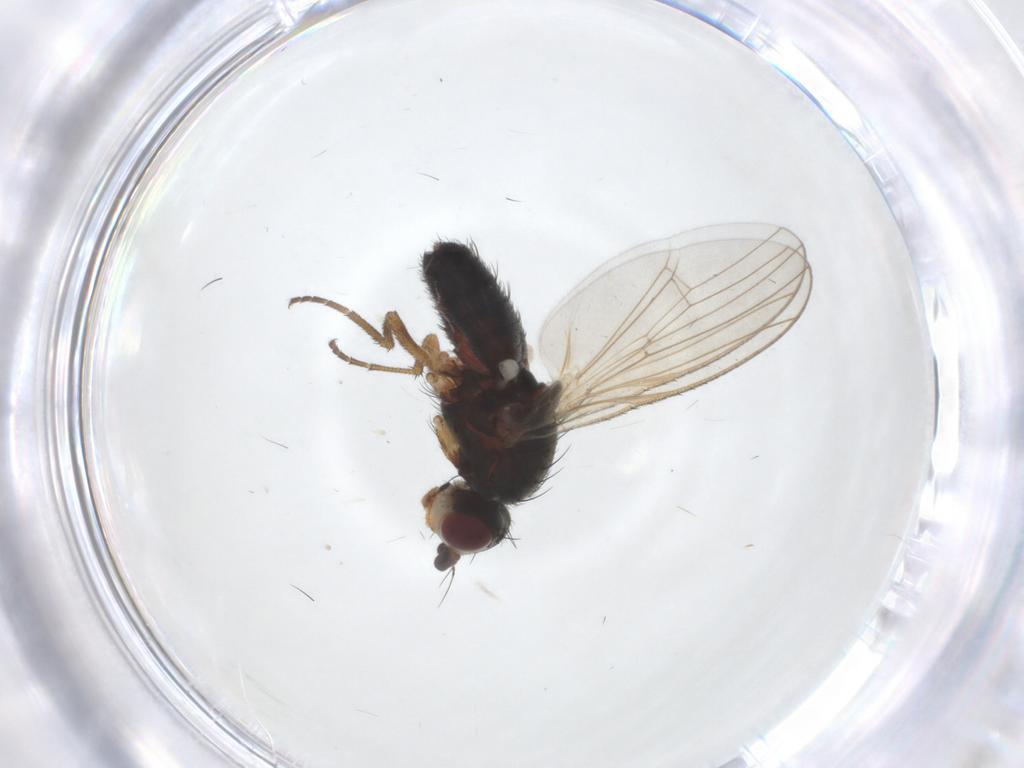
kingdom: Animalia
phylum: Arthropoda
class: Insecta
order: Diptera
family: Heleomyzidae
